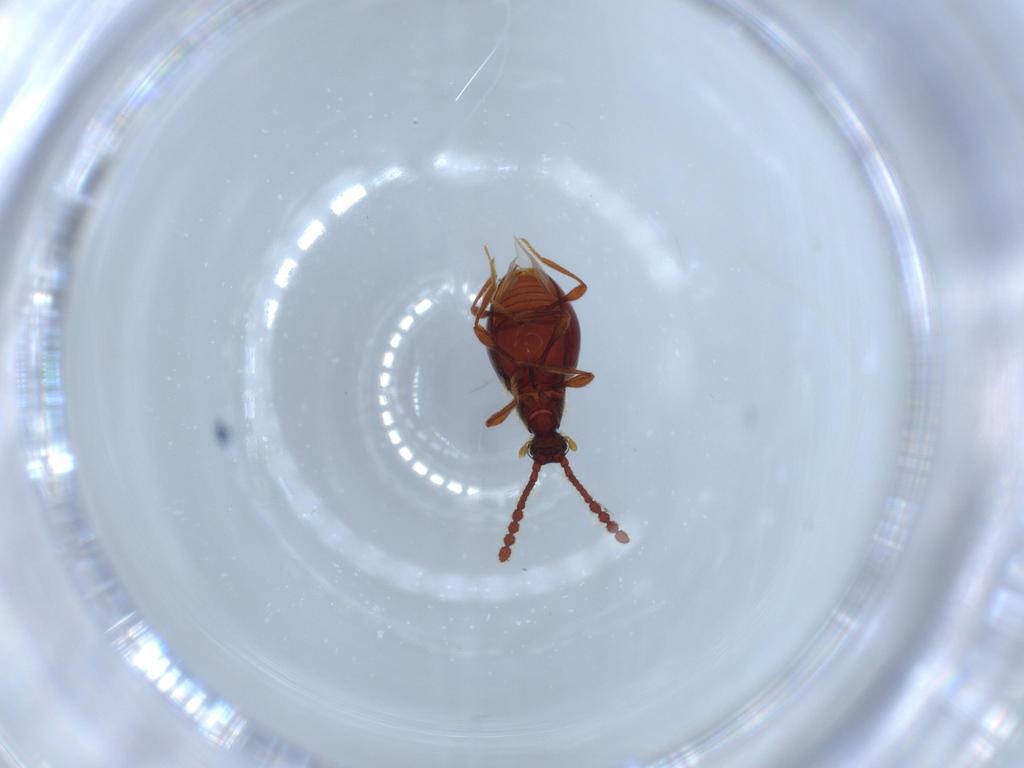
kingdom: Animalia
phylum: Arthropoda
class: Insecta
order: Coleoptera
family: Staphylinidae
